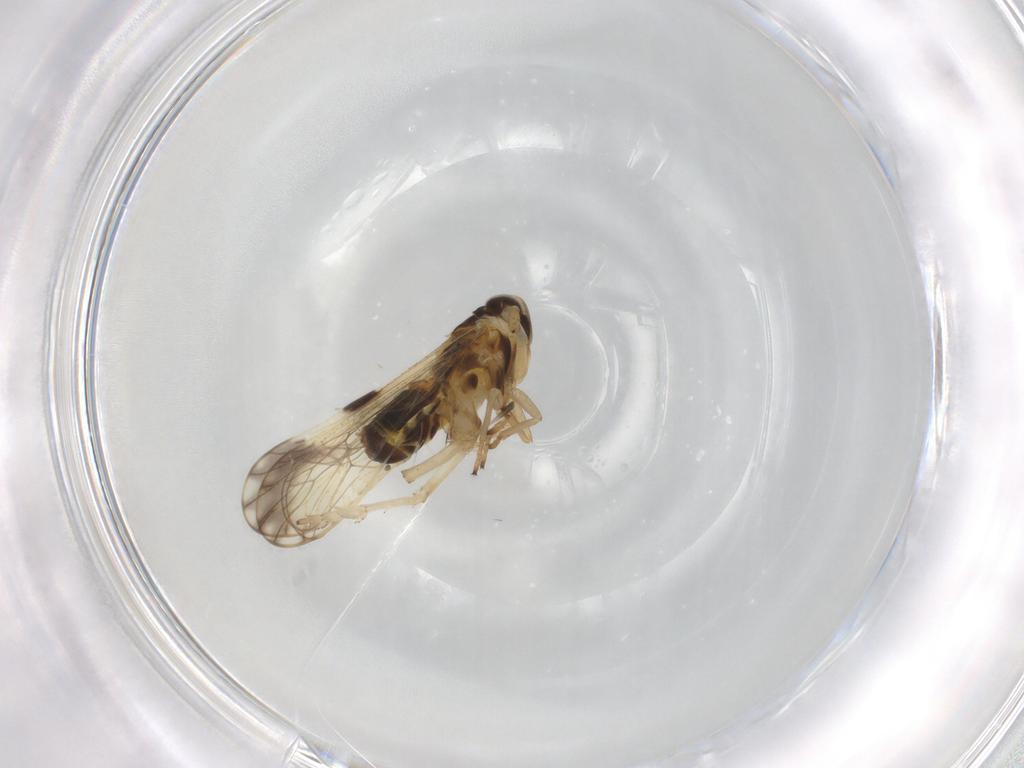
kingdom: Animalia
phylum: Arthropoda
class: Insecta
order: Hemiptera
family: Delphacidae
